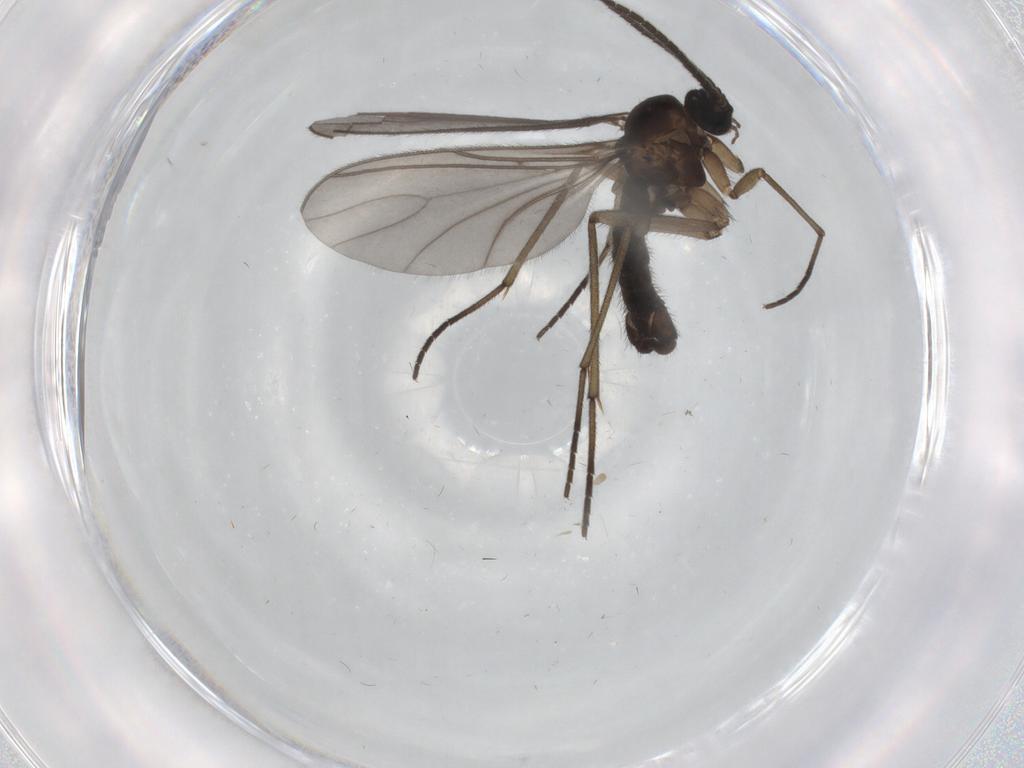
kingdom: Animalia
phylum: Arthropoda
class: Insecta
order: Diptera
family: Sciaridae
